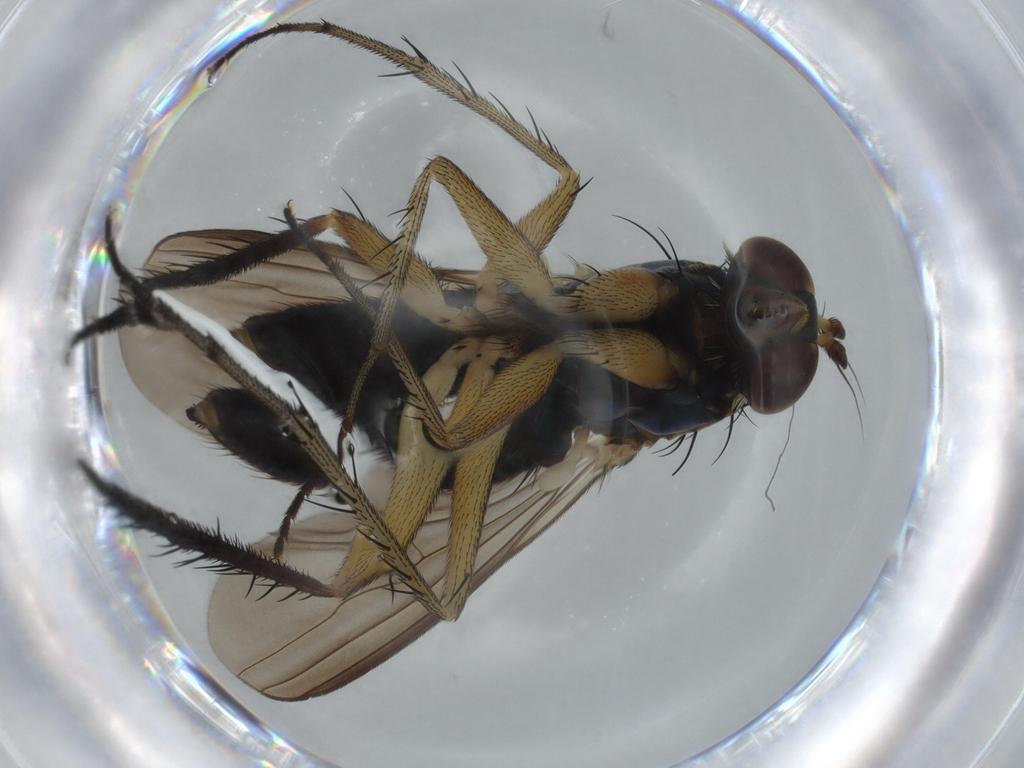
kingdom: Animalia
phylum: Arthropoda
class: Insecta
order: Diptera
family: Dolichopodidae
